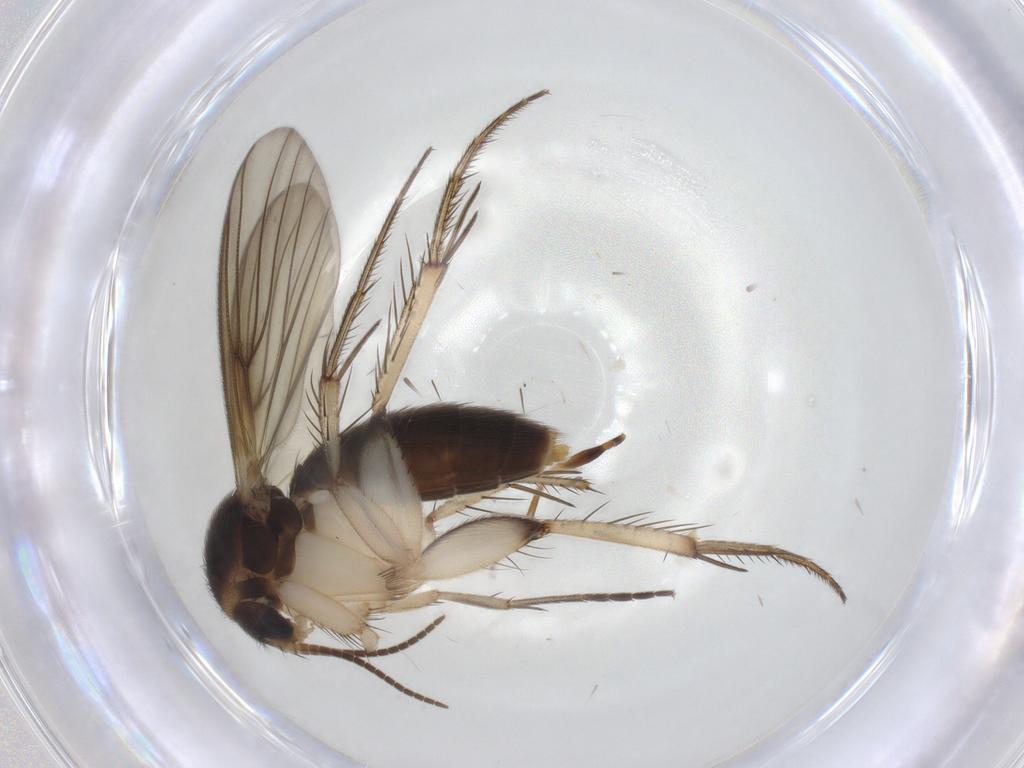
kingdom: Animalia
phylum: Arthropoda
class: Insecta
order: Diptera
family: Mycetophilidae
